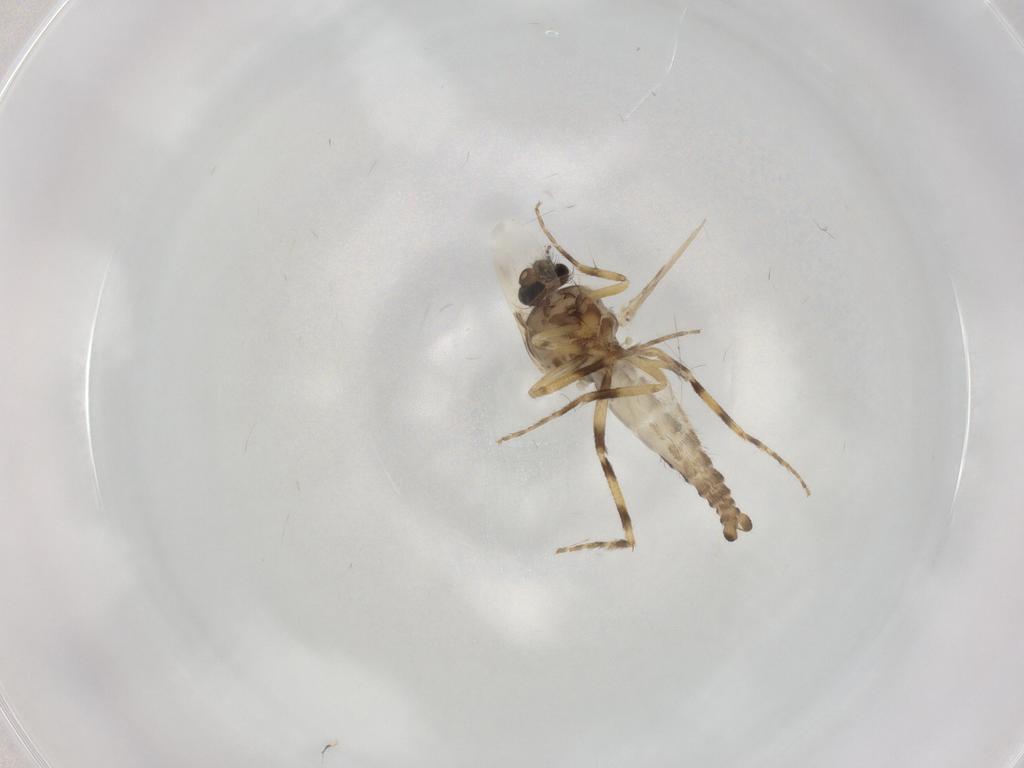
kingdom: Animalia
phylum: Arthropoda
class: Insecta
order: Diptera
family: Ceratopogonidae
